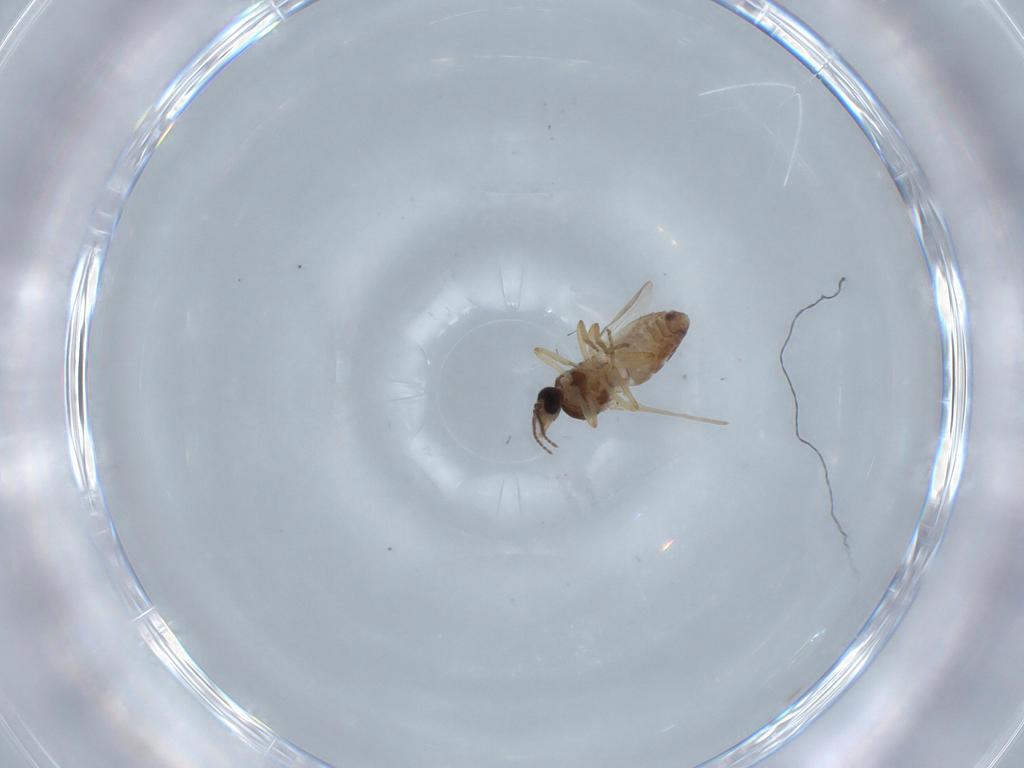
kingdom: Animalia
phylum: Arthropoda
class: Insecta
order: Diptera
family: Ceratopogonidae
